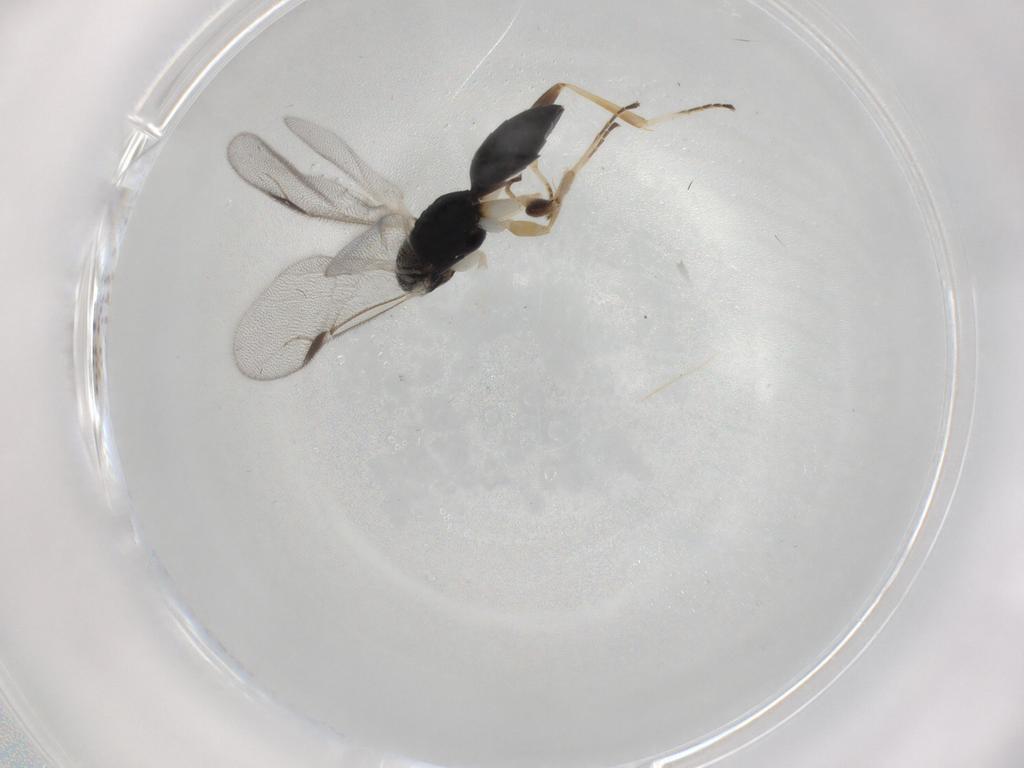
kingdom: Animalia
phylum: Arthropoda
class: Insecta
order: Hymenoptera
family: Dryinidae
